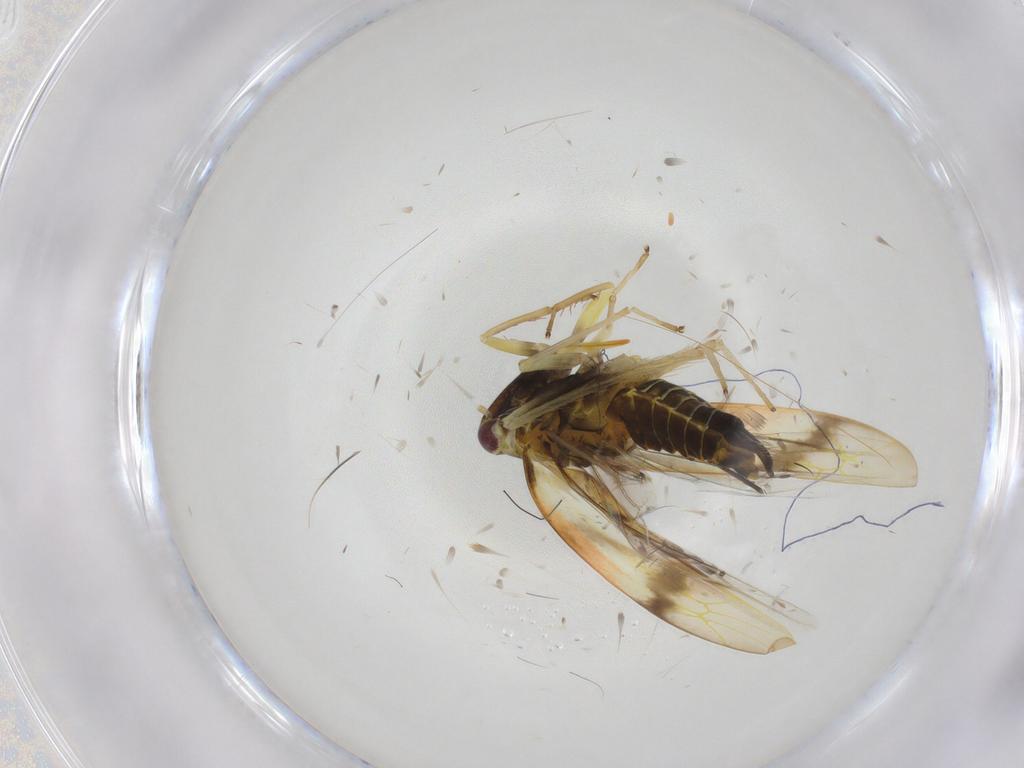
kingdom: Animalia
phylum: Arthropoda
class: Insecta
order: Hemiptera
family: Cicadellidae
